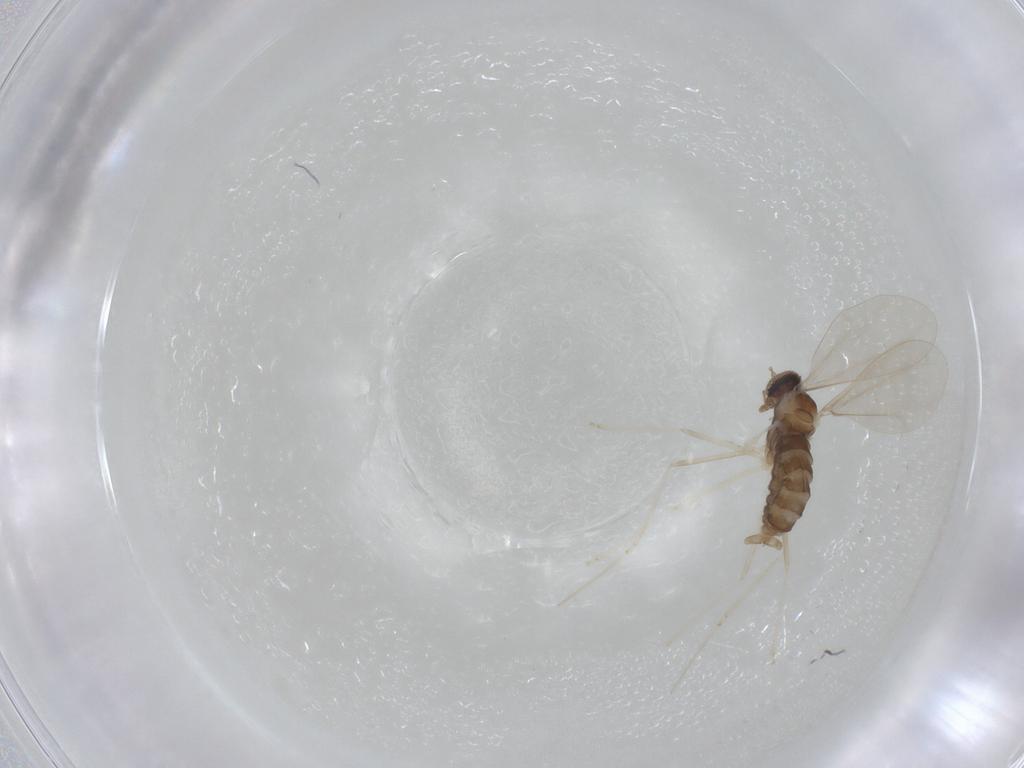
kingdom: Animalia
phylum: Arthropoda
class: Insecta
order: Diptera
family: Cecidomyiidae
